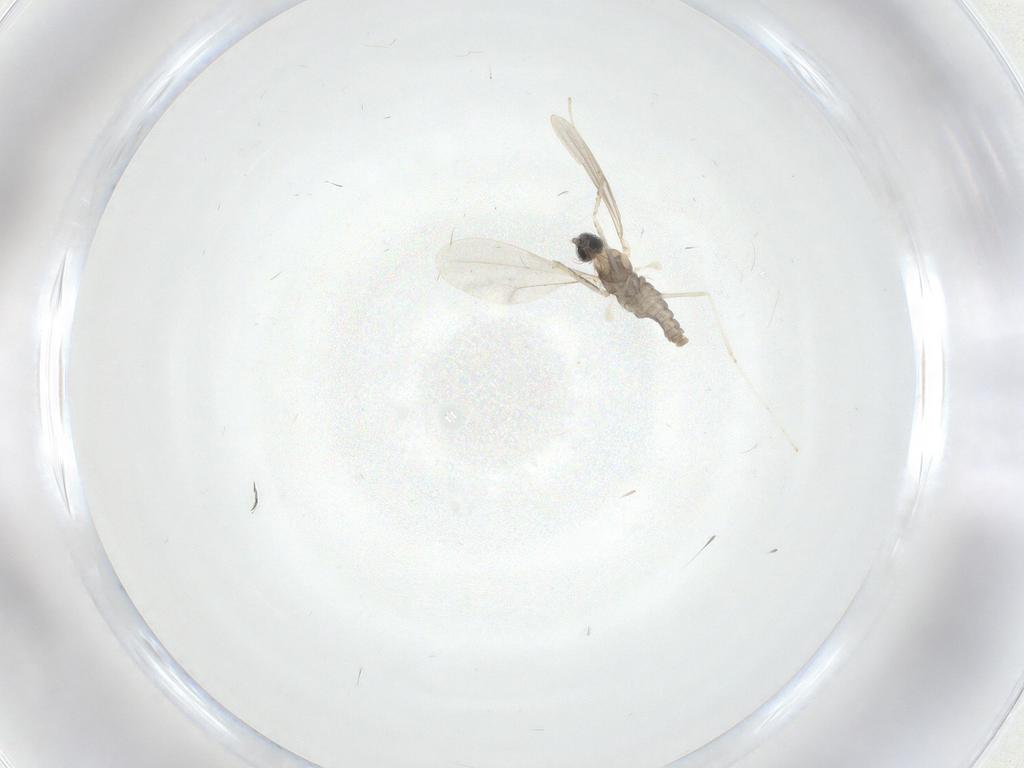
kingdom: Animalia
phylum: Arthropoda
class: Insecta
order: Diptera
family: Cecidomyiidae
